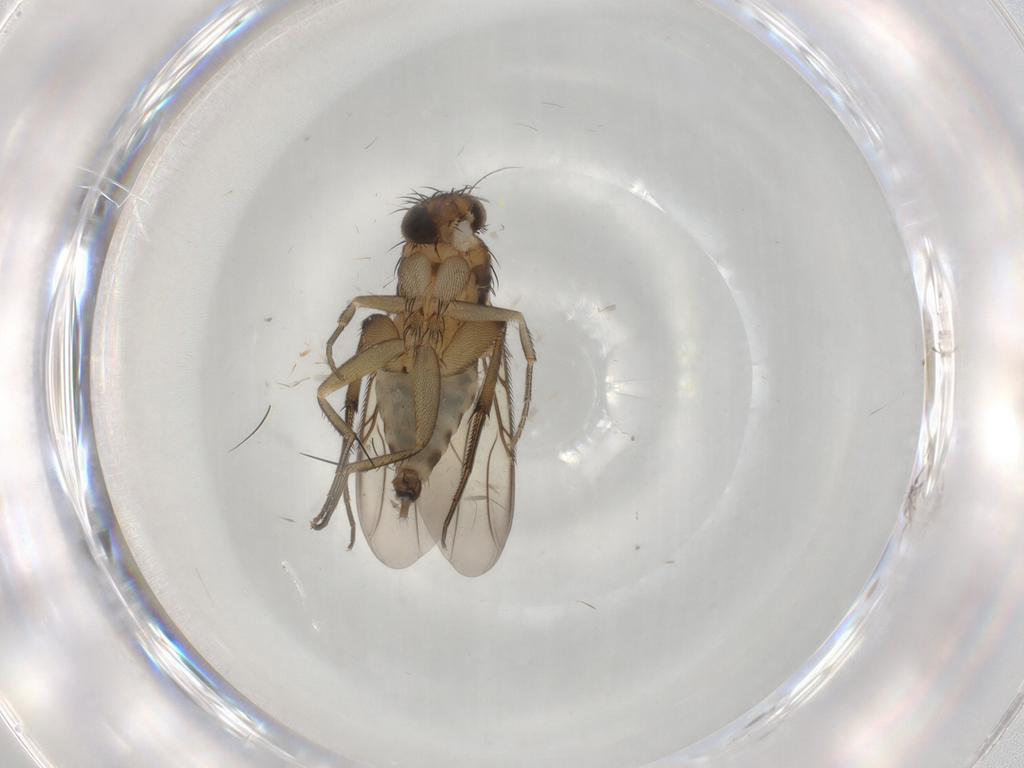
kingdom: Animalia
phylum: Arthropoda
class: Insecta
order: Diptera
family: Phoridae
